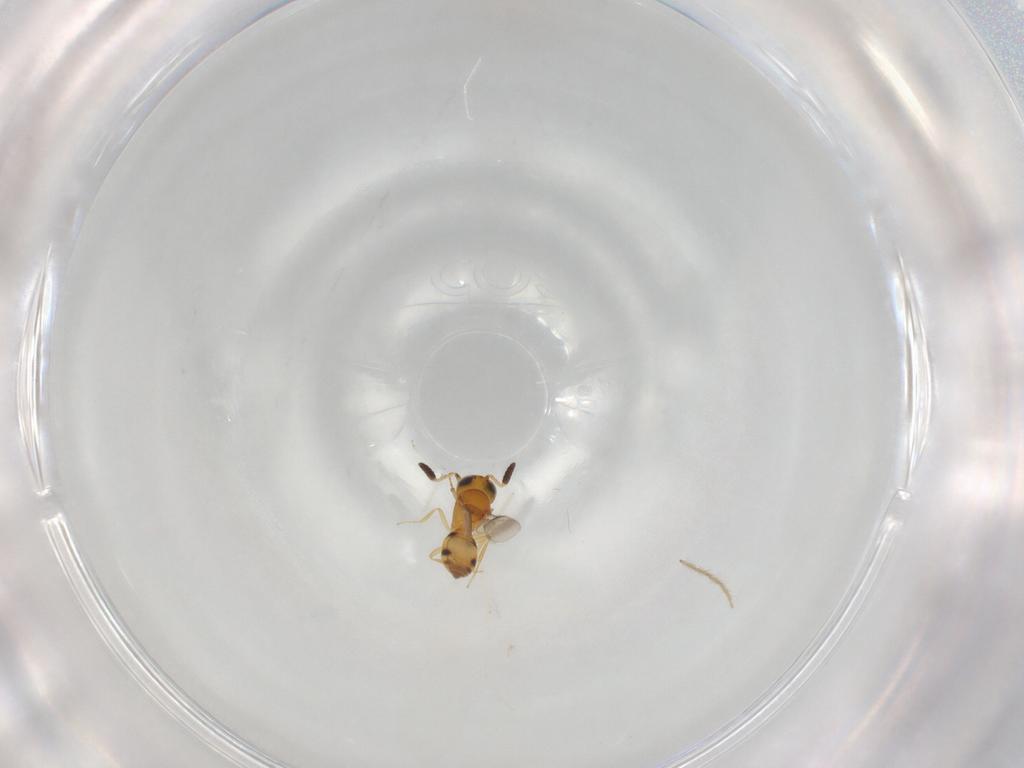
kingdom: Animalia
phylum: Arthropoda
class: Insecta
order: Hymenoptera
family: Scelionidae
